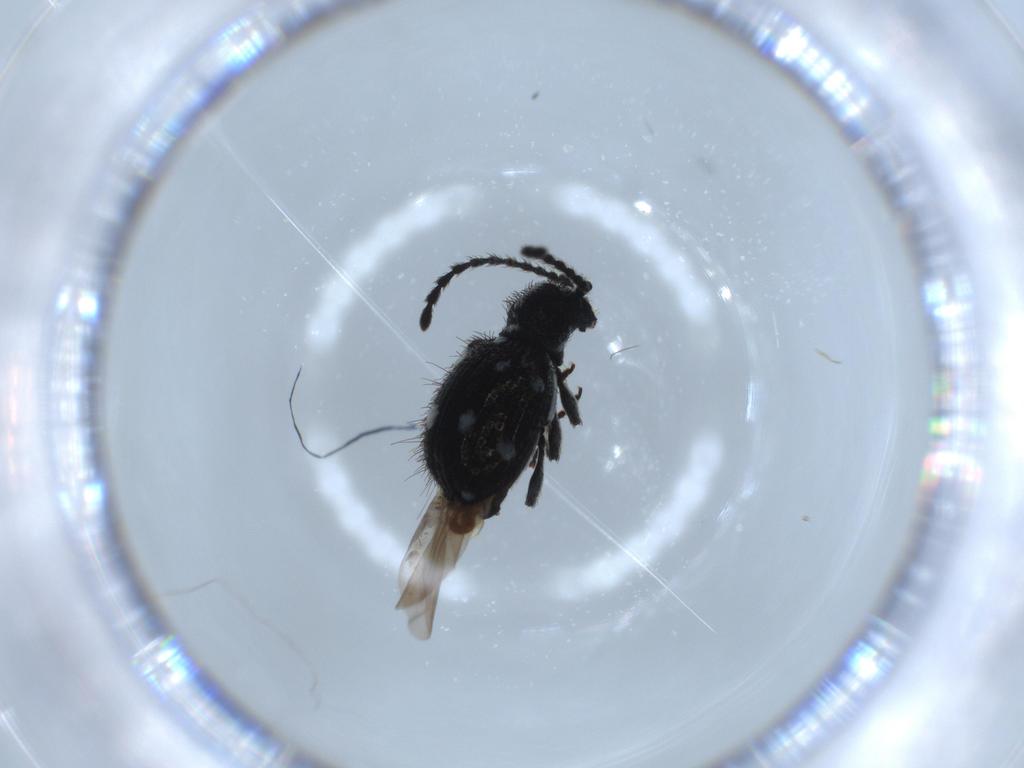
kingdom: Animalia
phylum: Arthropoda
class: Insecta
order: Coleoptera
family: Ptinidae
